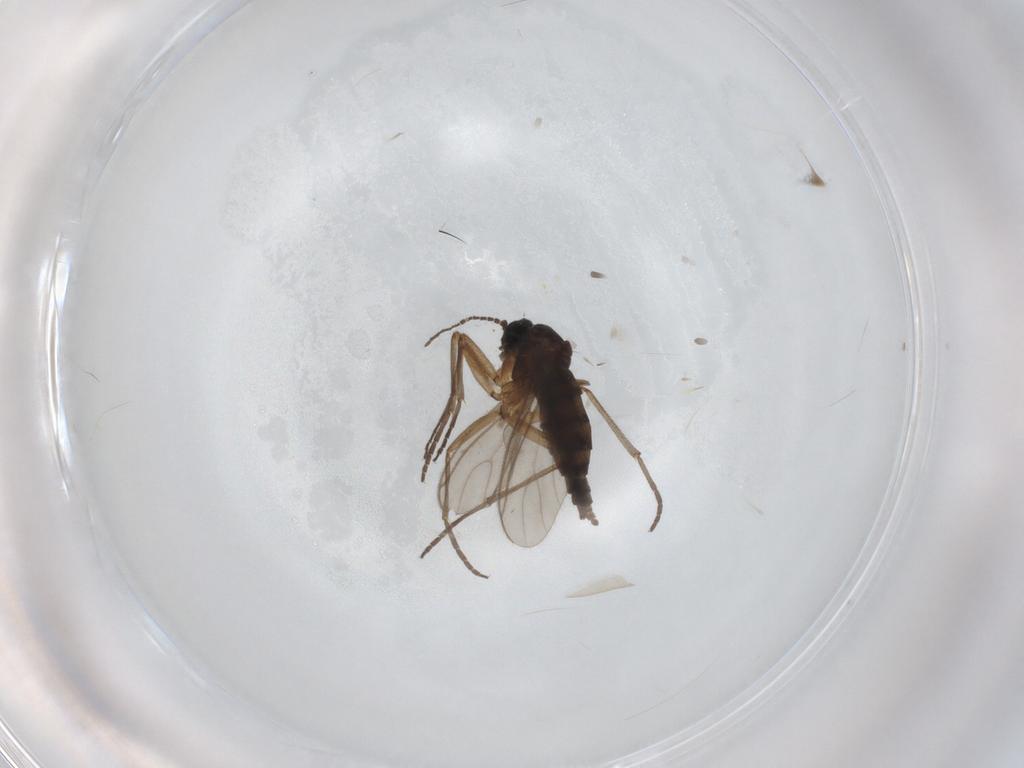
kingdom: Animalia
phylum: Arthropoda
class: Insecta
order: Diptera
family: Sciaridae
